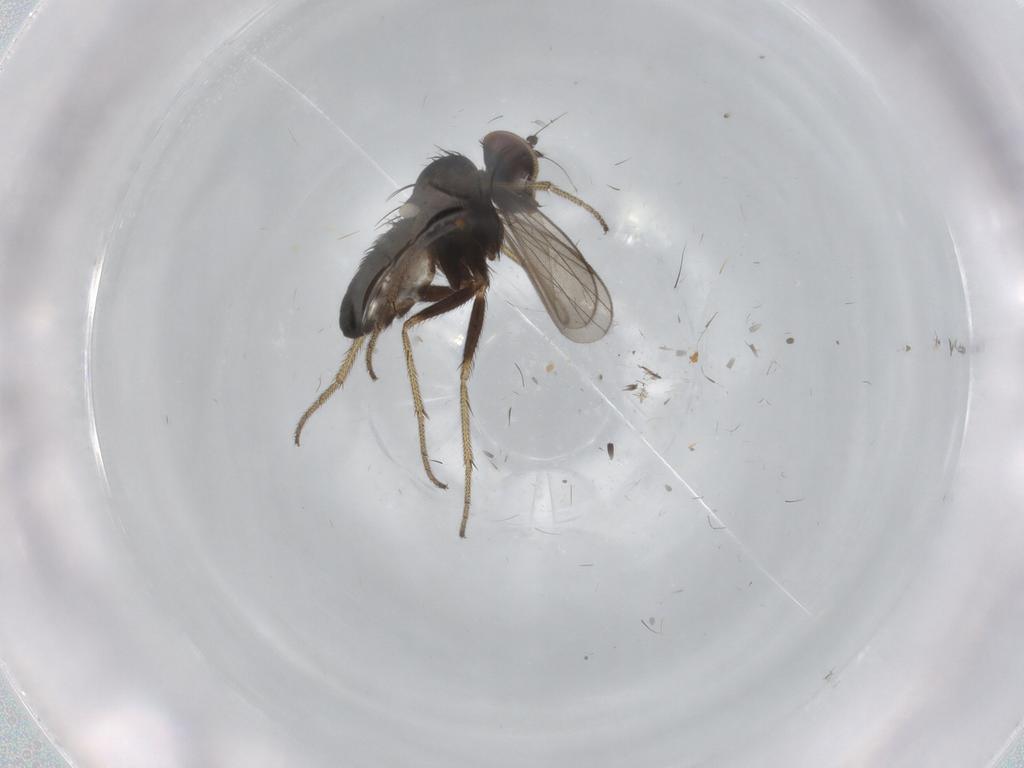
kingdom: Animalia
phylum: Arthropoda
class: Insecta
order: Diptera
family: Dolichopodidae
